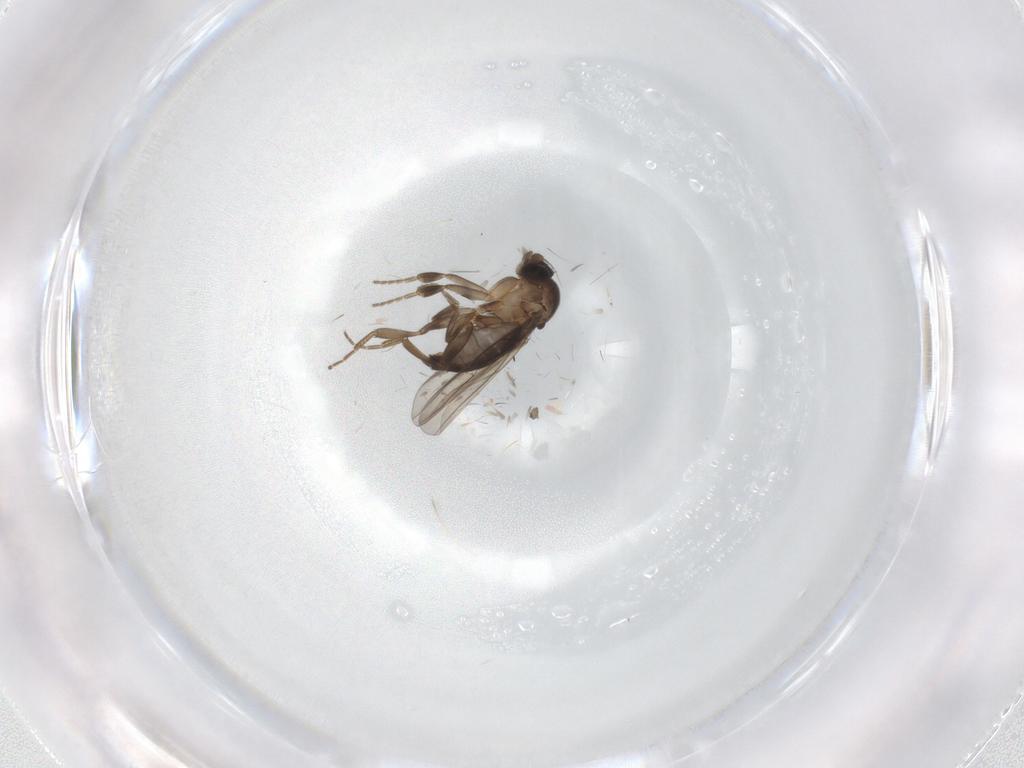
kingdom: Animalia
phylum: Arthropoda
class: Insecta
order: Diptera
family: Phoridae
